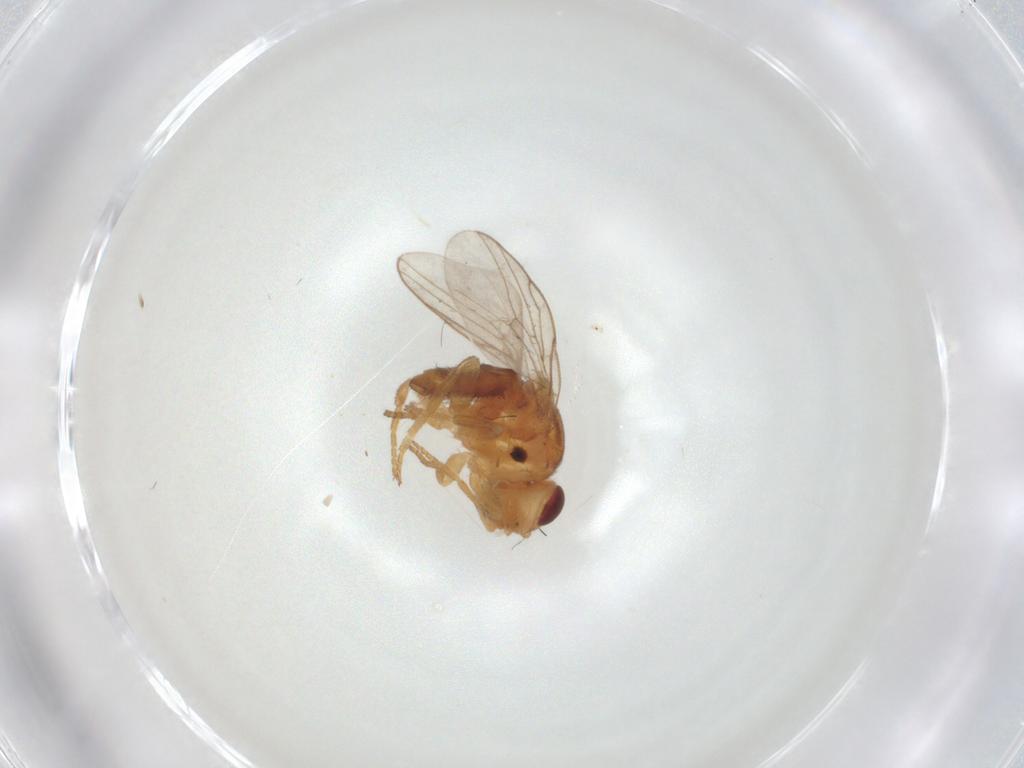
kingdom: Animalia
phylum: Arthropoda
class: Insecta
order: Diptera
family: Chloropidae
